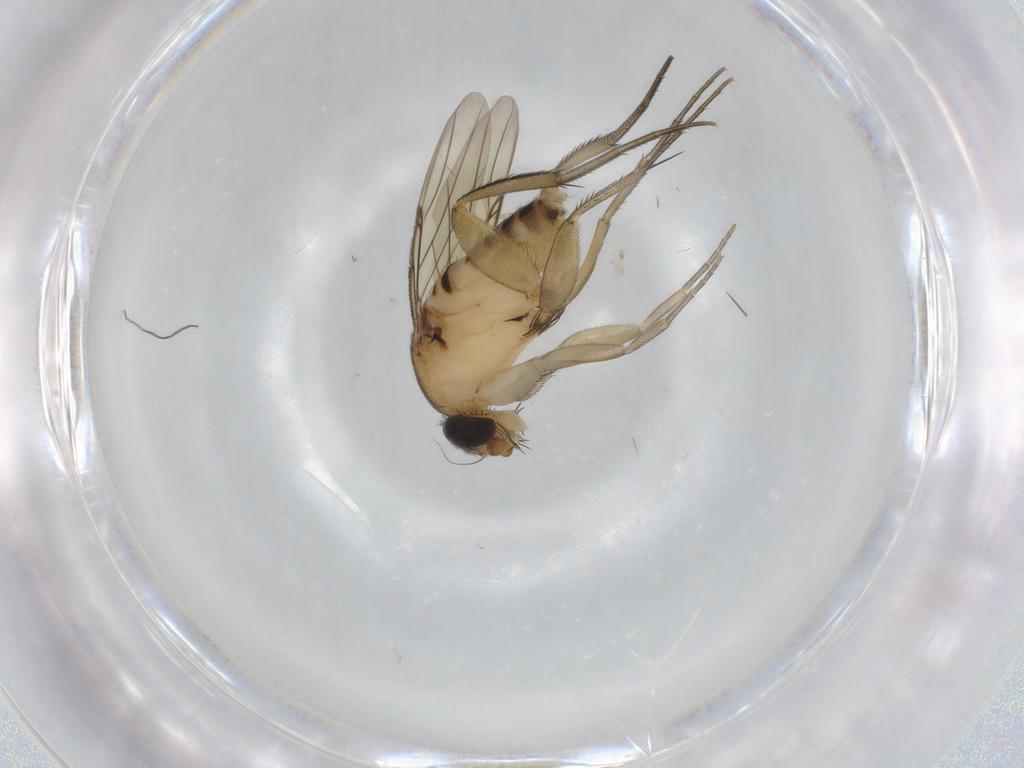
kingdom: Animalia
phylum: Arthropoda
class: Insecta
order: Diptera
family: Phoridae
